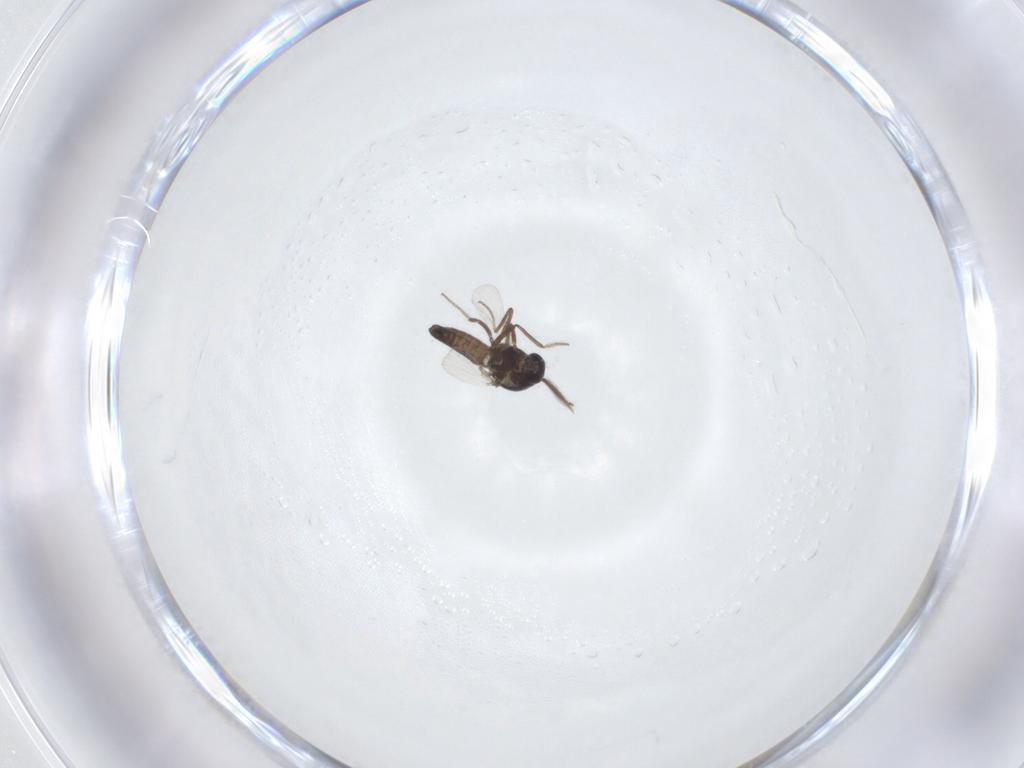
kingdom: Animalia
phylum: Arthropoda
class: Insecta
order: Diptera
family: Ceratopogonidae
